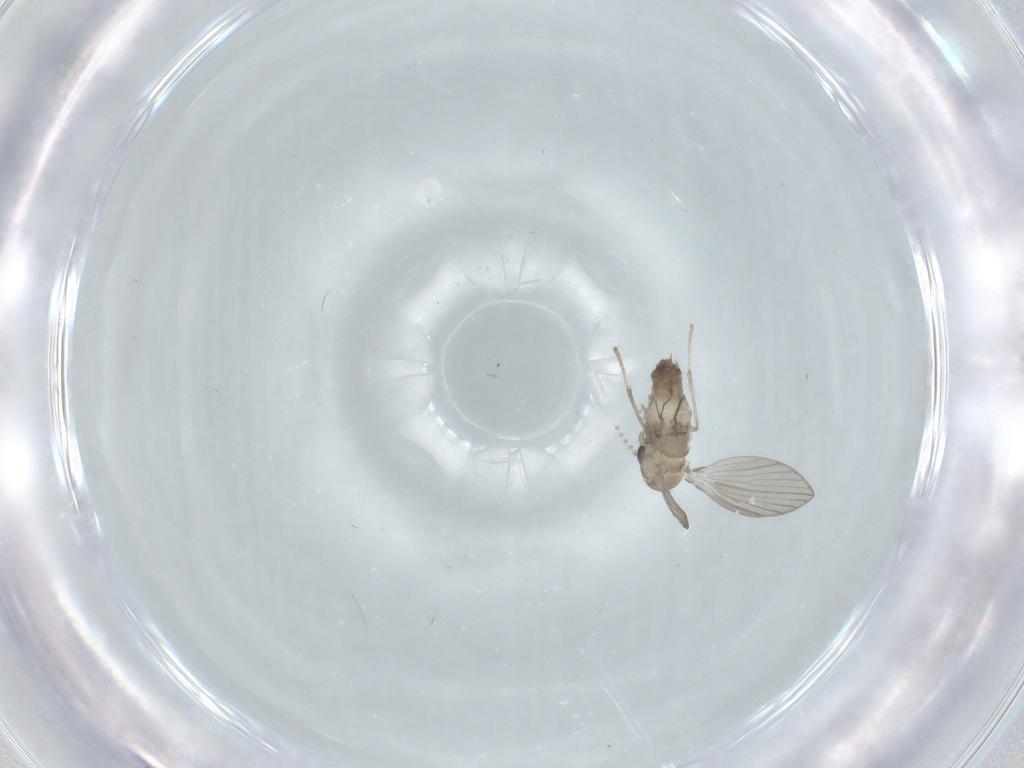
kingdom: Animalia
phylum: Arthropoda
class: Insecta
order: Diptera
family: Psychodidae
